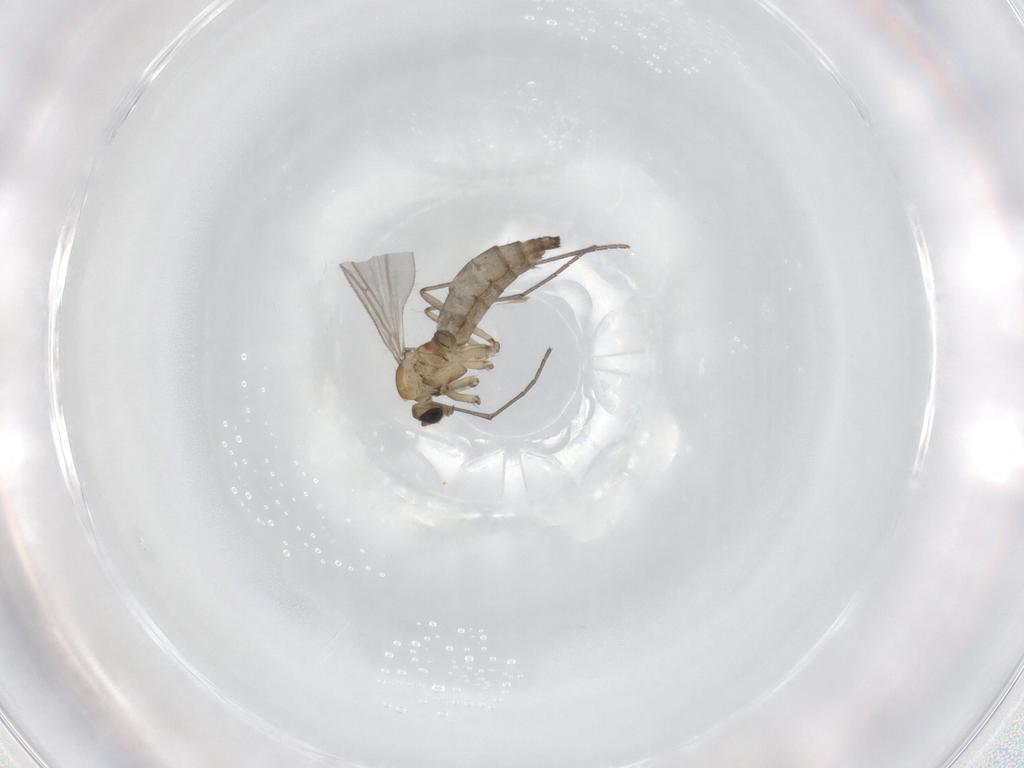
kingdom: Animalia
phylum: Arthropoda
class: Insecta
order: Diptera
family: Sciaridae
